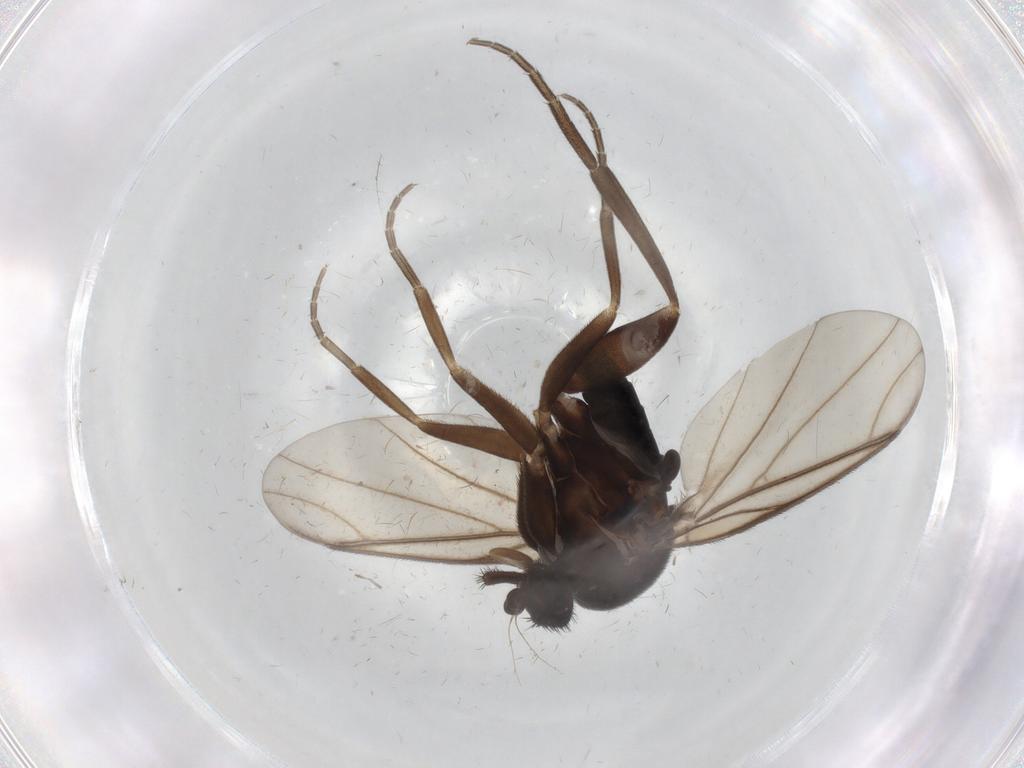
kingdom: Animalia
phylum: Arthropoda
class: Insecta
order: Diptera
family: Phoridae
